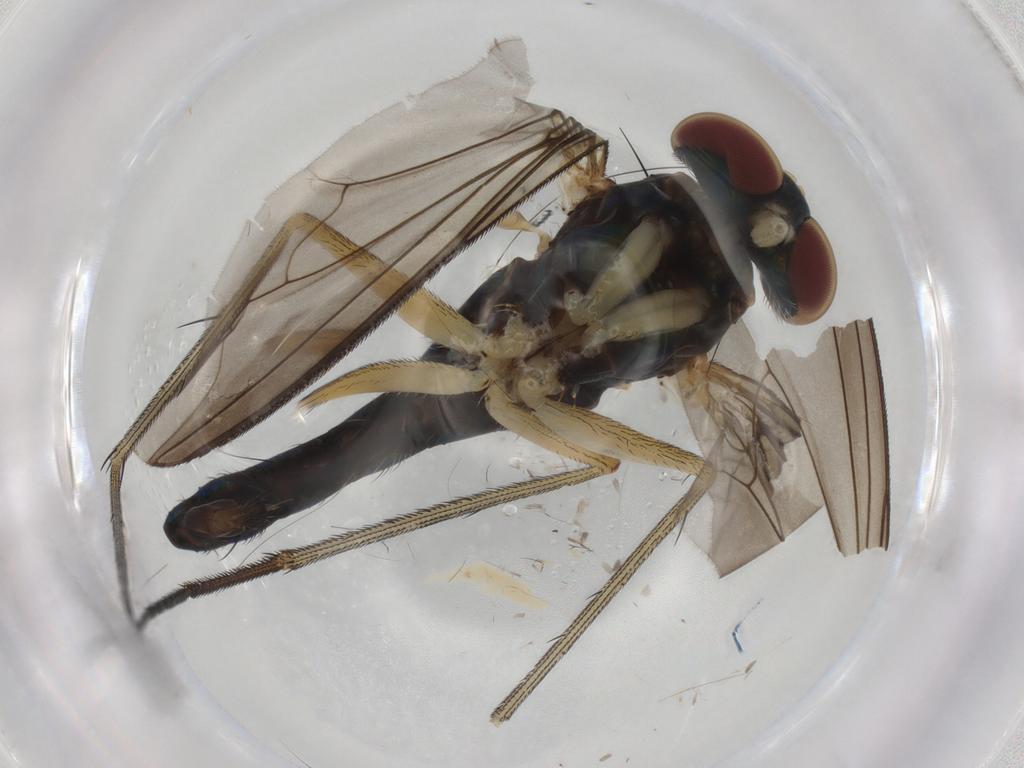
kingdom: Animalia
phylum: Arthropoda
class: Insecta
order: Diptera
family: Dolichopodidae
